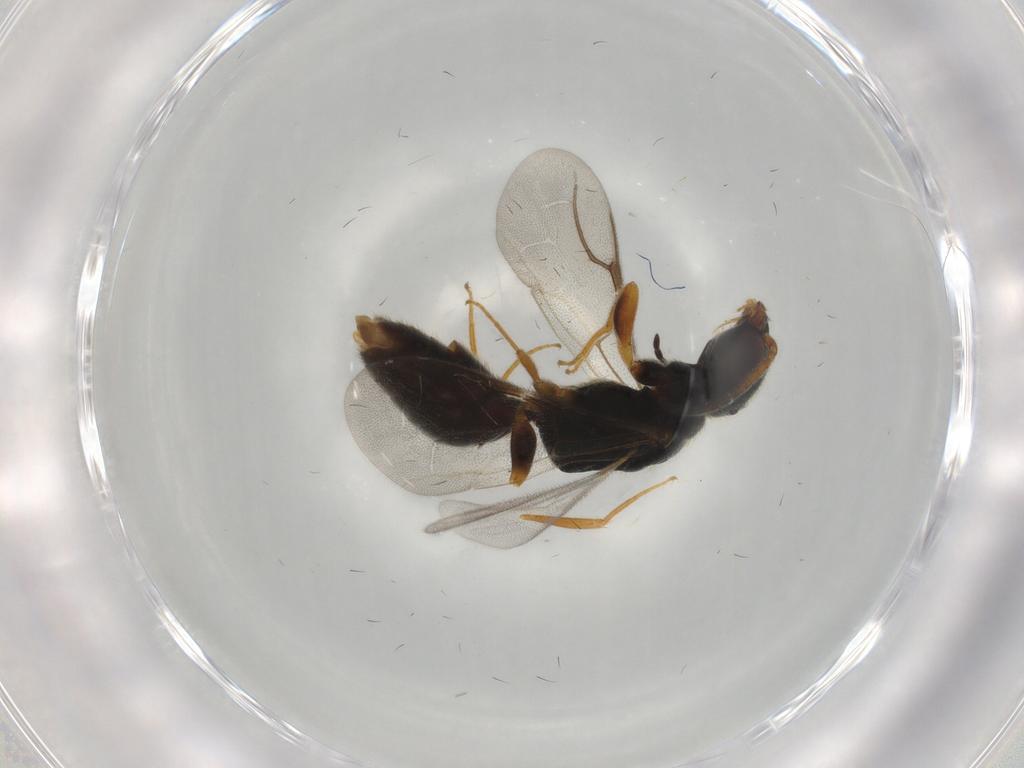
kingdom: Animalia
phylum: Arthropoda
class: Insecta
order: Hymenoptera
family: Bethylidae
